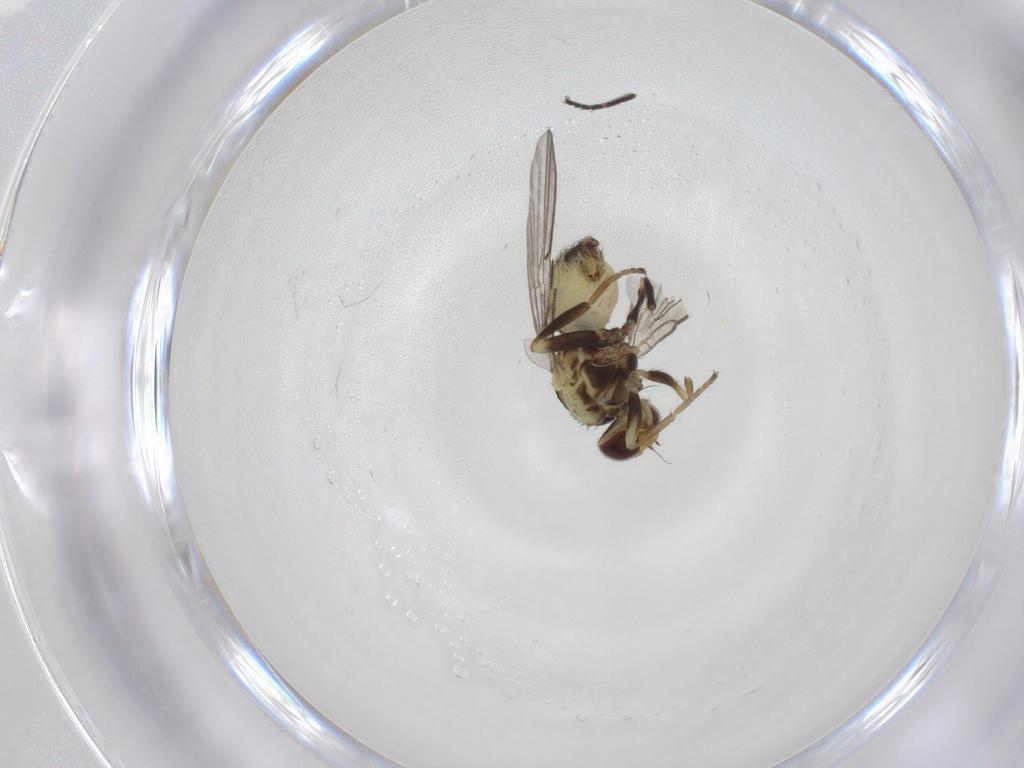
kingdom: Animalia
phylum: Arthropoda
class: Insecta
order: Diptera
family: Agromyzidae
